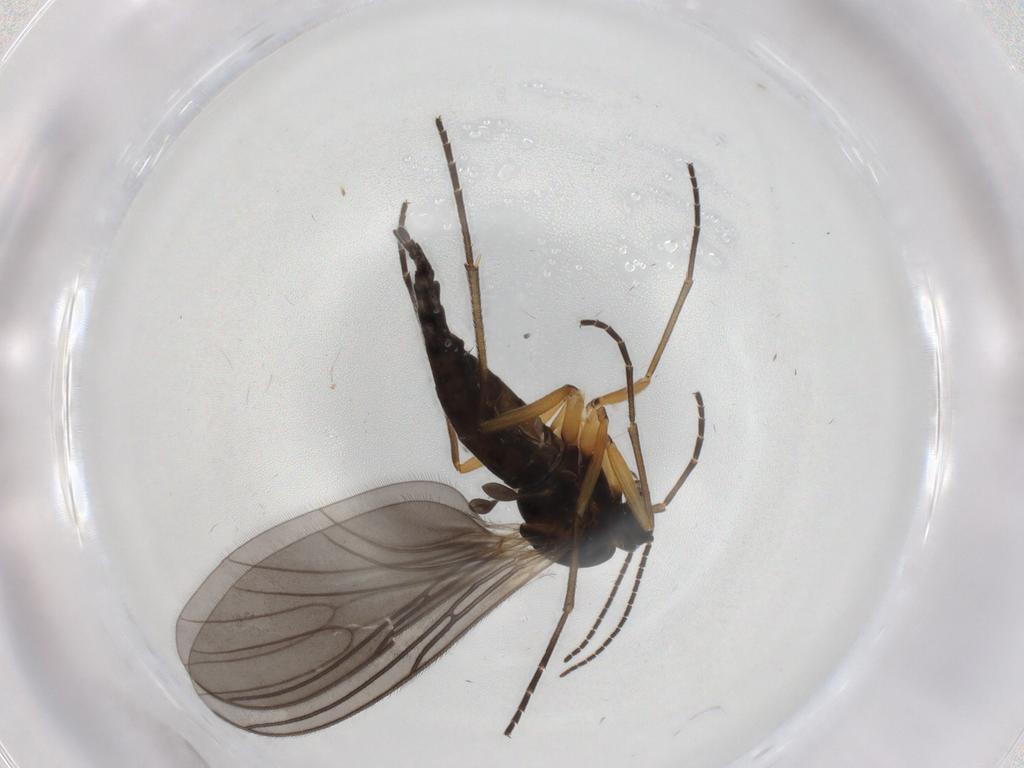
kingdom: Animalia
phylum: Arthropoda
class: Insecta
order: Diptera
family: Sciaridae
